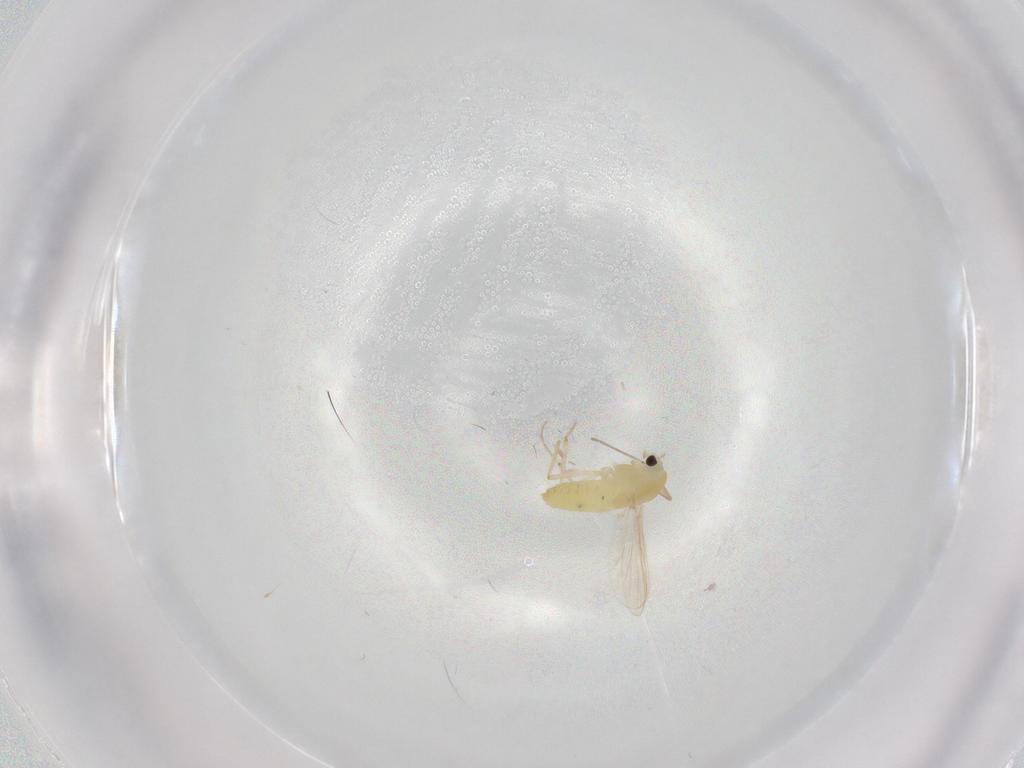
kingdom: Animalia
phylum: Arthropoda
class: Insecta
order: Diptera
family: Chironomidae
